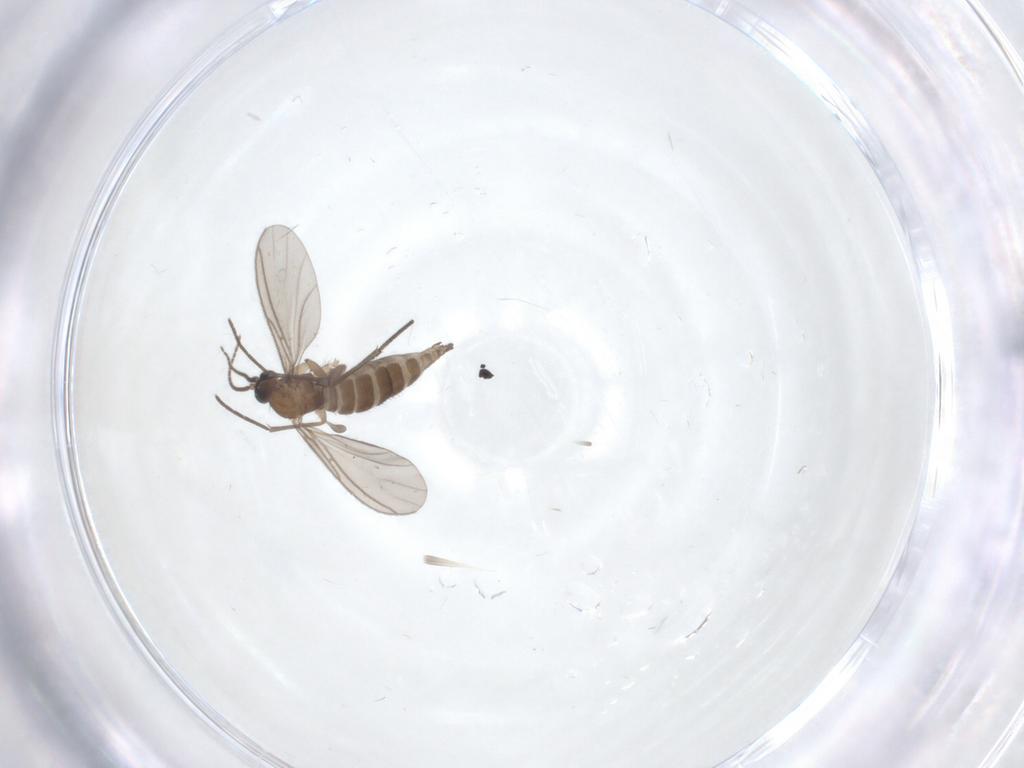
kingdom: Animalia
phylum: Arthropoda
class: Insecta
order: Diptera
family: Sciaridae
